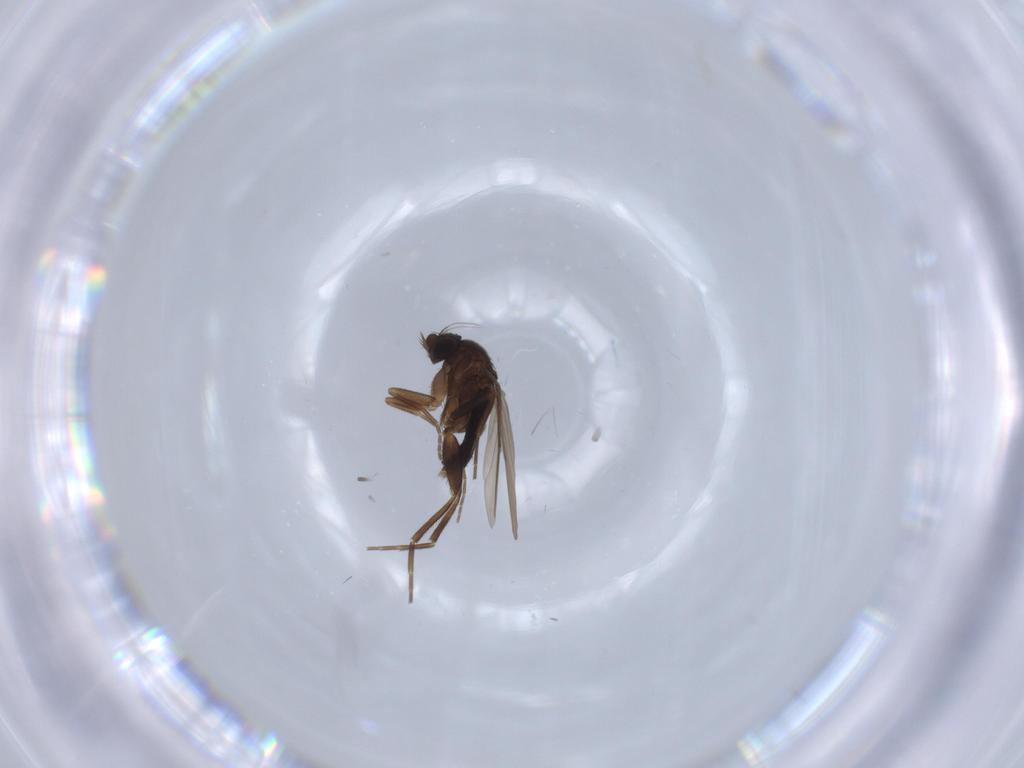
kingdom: Animalia
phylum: Arthropoda
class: Insecta
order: Diptera
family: Phoridae
